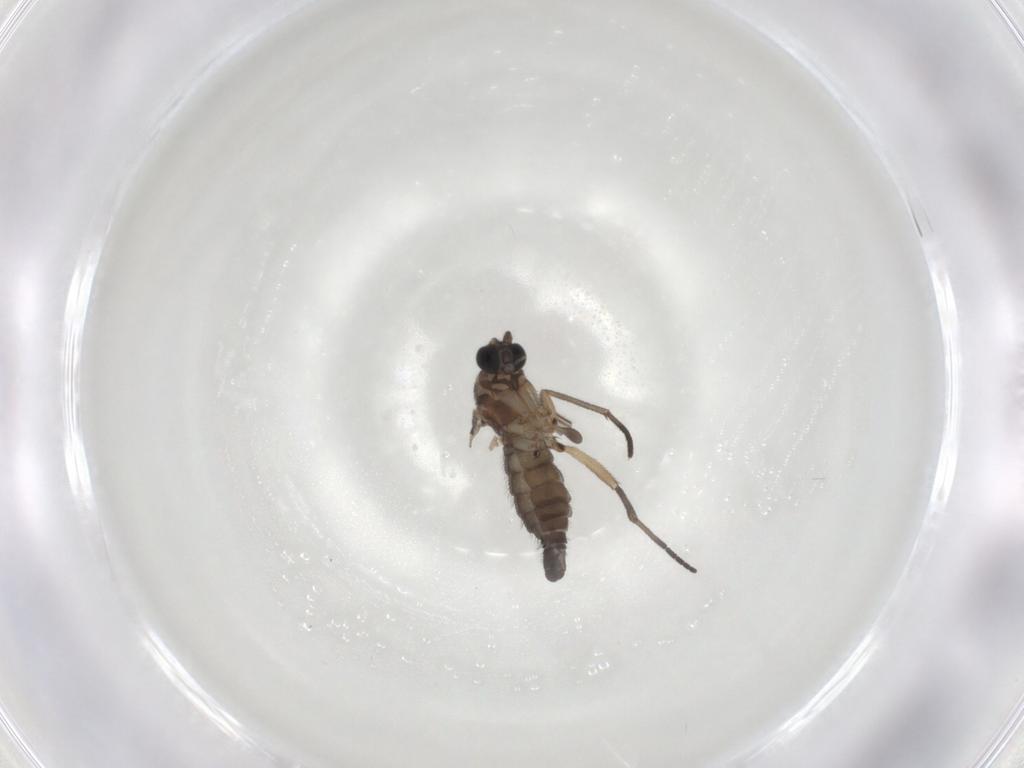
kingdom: Animalia
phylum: Arthropoda
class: Insecta
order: Diptera
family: Sciaridae
